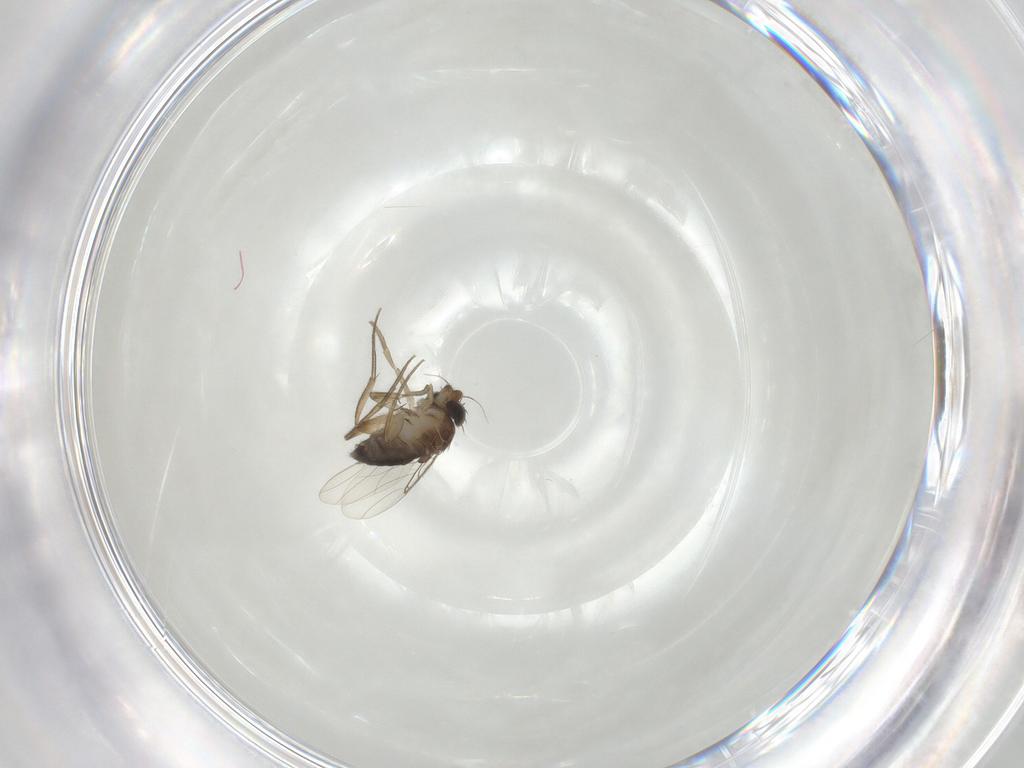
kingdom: Animalia
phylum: Arthropoda
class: Insecta
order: Diptera
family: Phoridae
